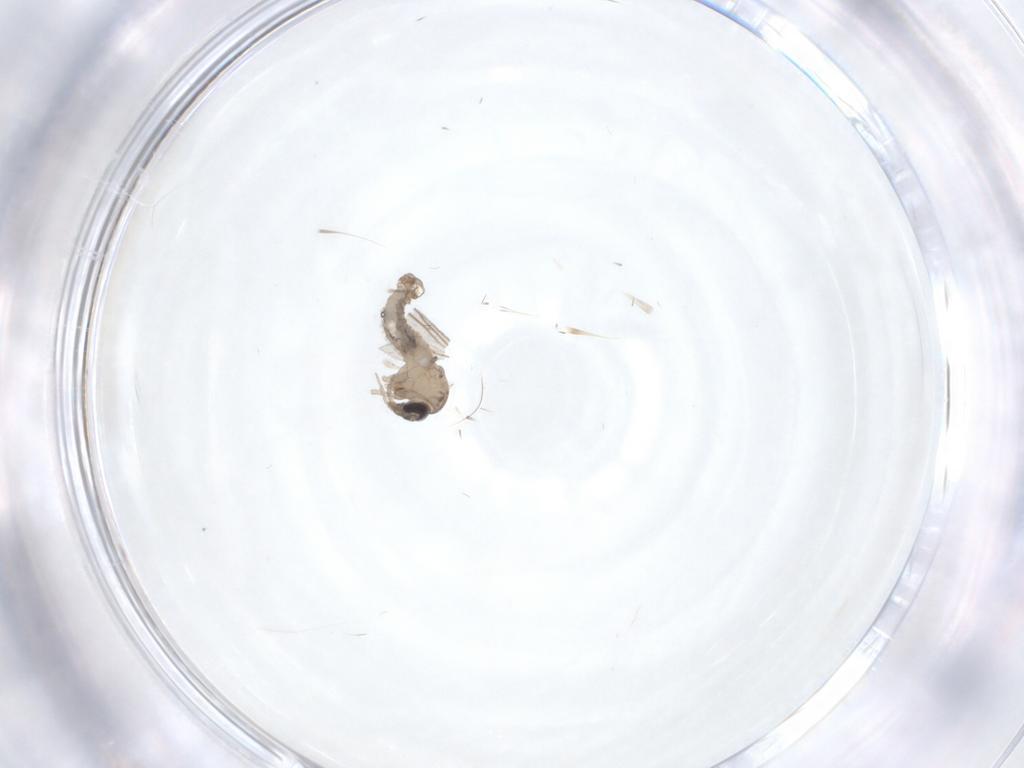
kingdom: Animalia
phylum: Arthropoda
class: Insecta
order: Diptera
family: Psychodidae
